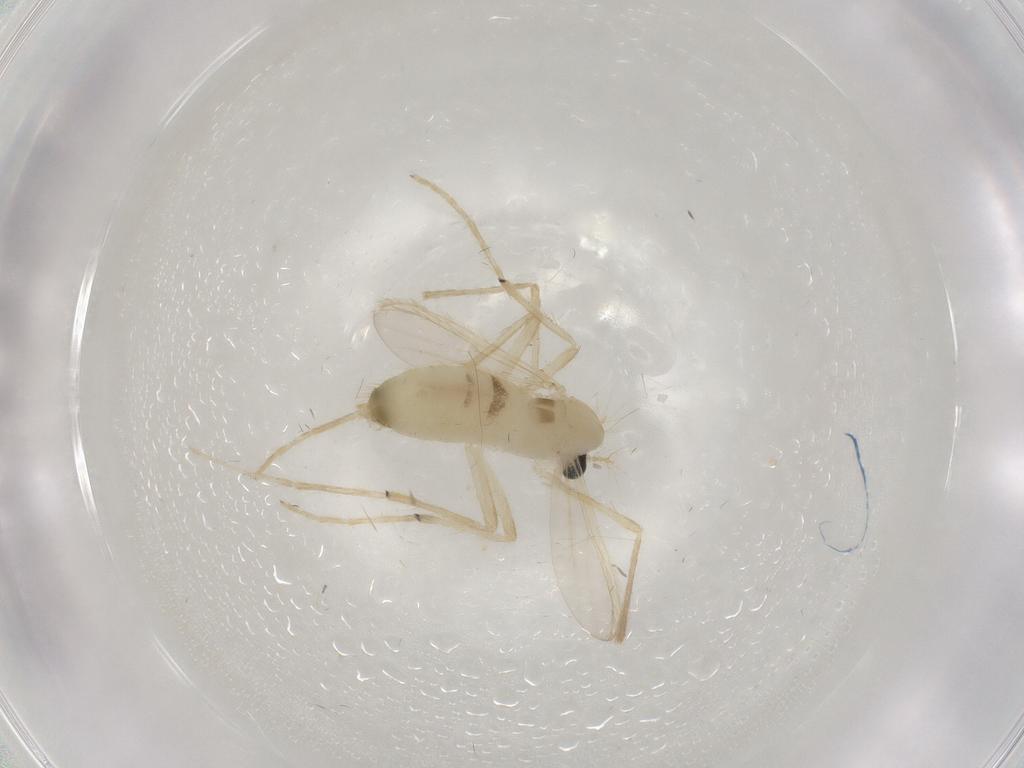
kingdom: Animalia
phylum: Arthropoda
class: Insecta
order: Diptera
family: Chironomidae
